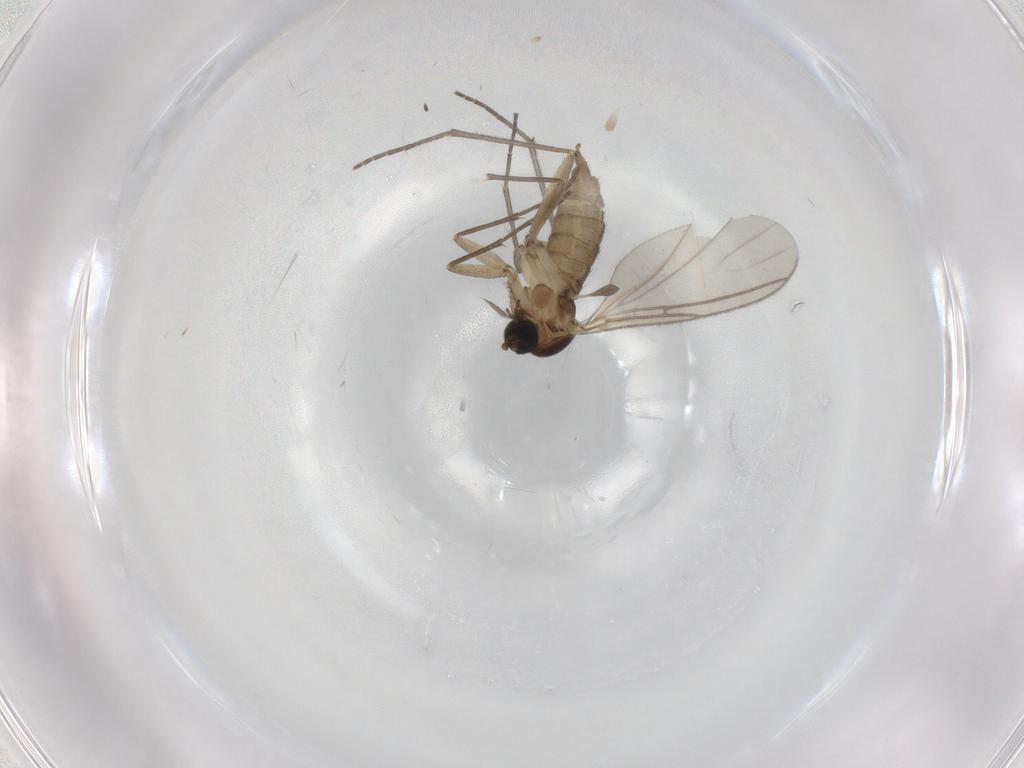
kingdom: Animalia
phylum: Arthropoda
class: Insecta
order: Diptera
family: Sciaridae
